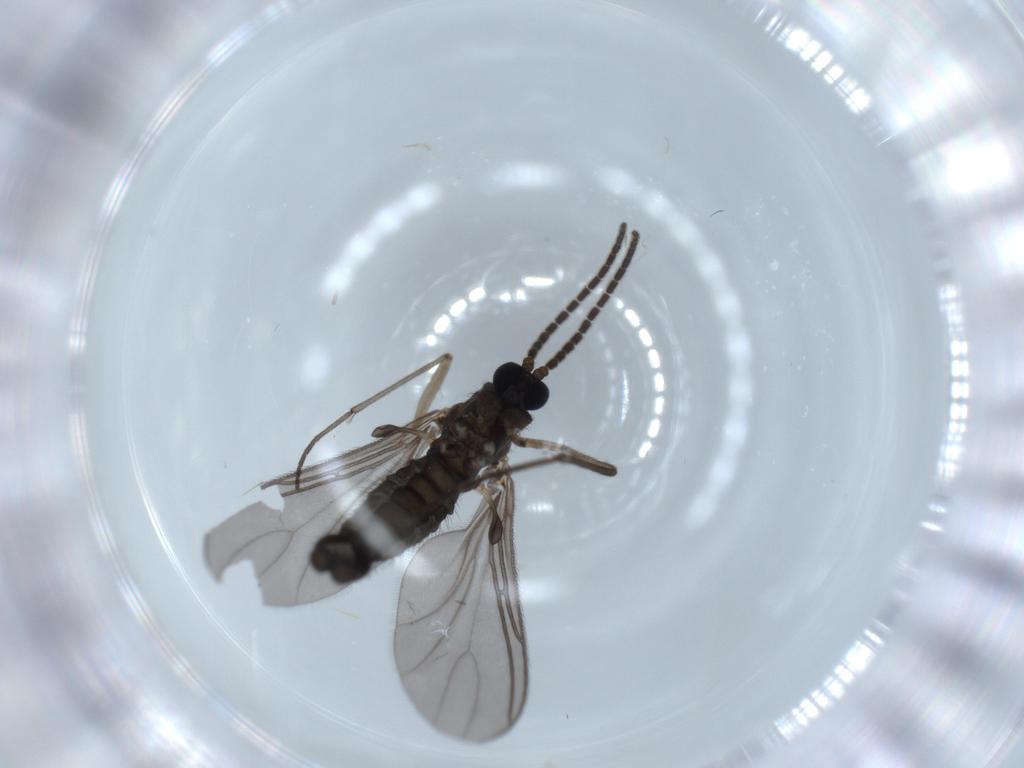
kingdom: Animalia
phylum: Arthropoda
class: Insecta
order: Diptera
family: Sciaridae
